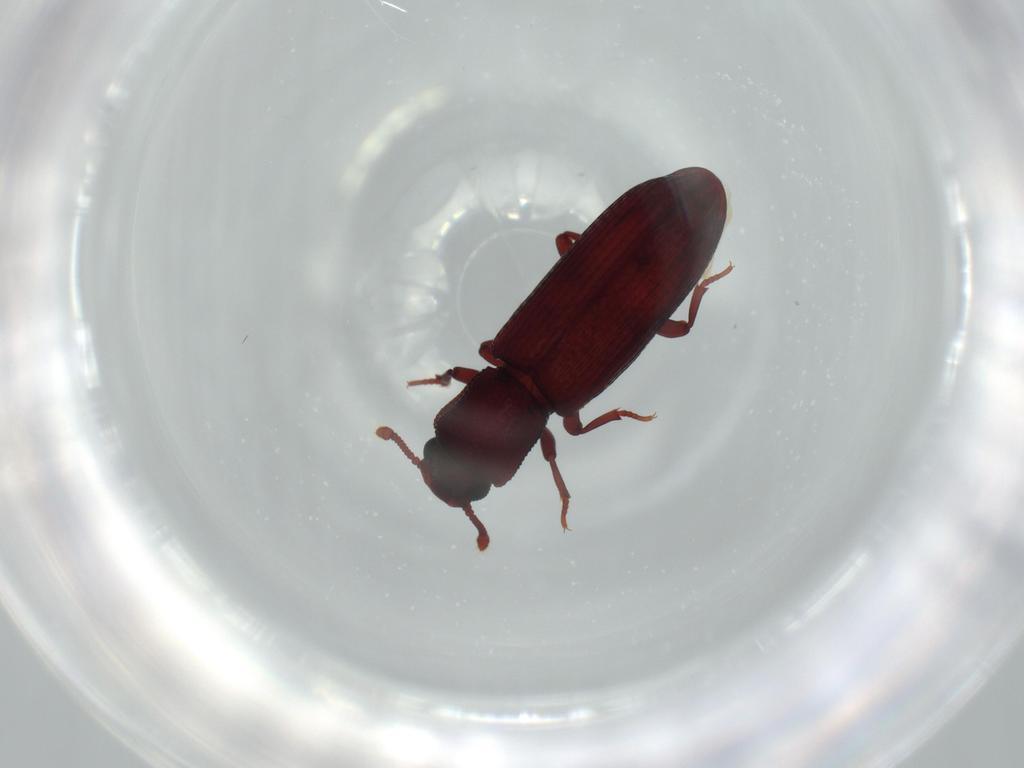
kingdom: Animalia
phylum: Arthropoda
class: Insecta
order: Coleoptera
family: Zopheridae
